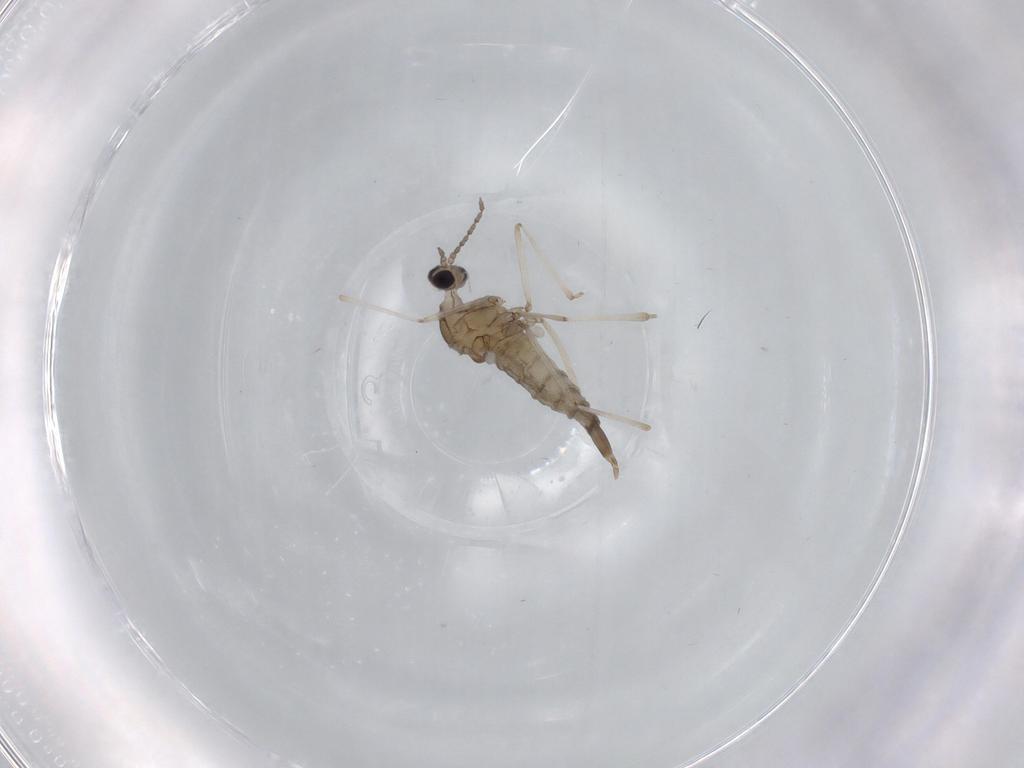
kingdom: Animalia
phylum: Arthropoda
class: Insecta
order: Diptera
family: Cecidomyiidae
